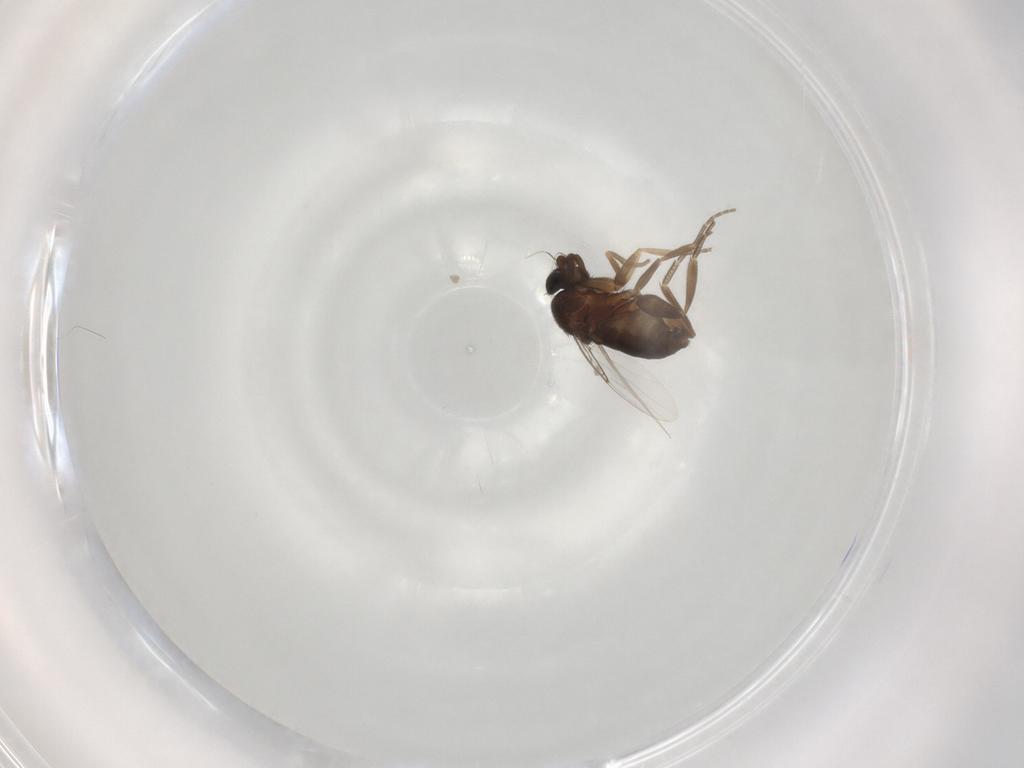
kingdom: Animalia
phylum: Arthropoda
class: Insecta
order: Diptera
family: Phoridae
